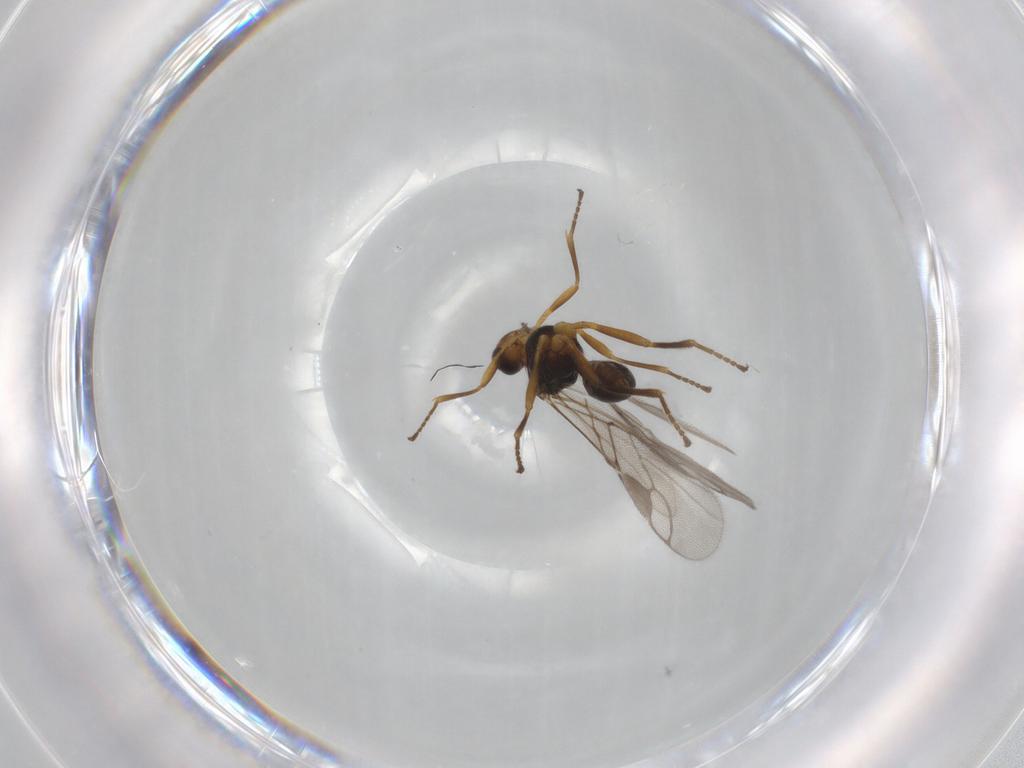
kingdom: Animalia
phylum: Arthropoda
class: Insecta
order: Hymenoptera
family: Braconidae
